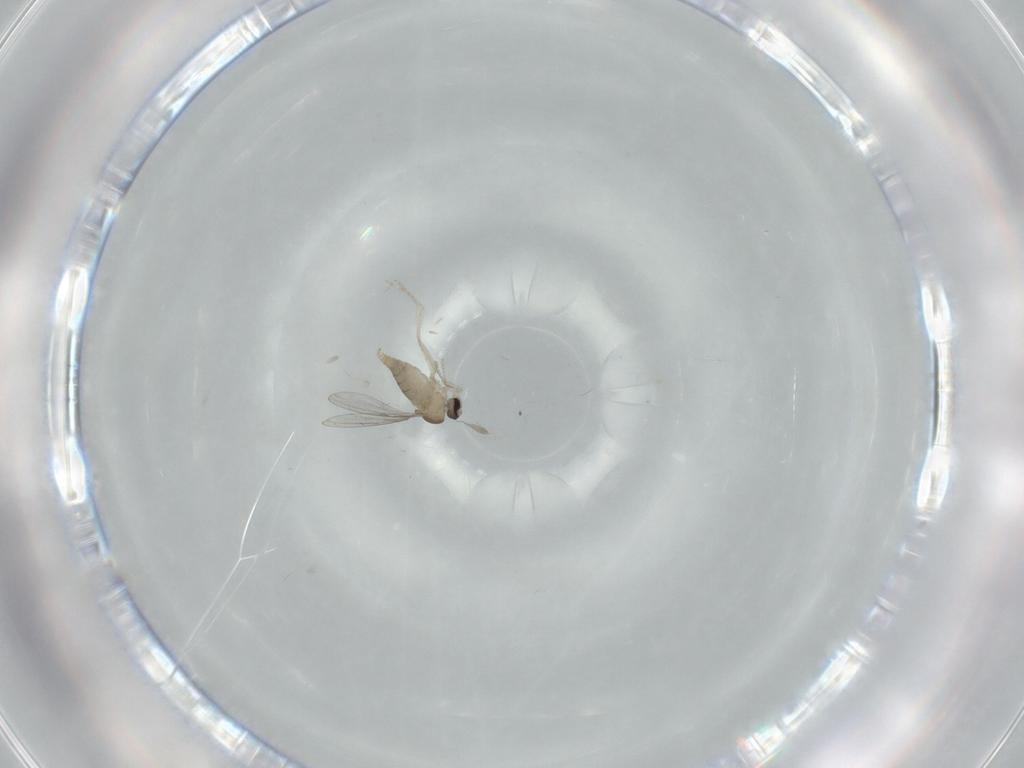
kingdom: Animalia
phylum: Arthropoda
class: Insecta
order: Diptera
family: Cecidomyiidae
